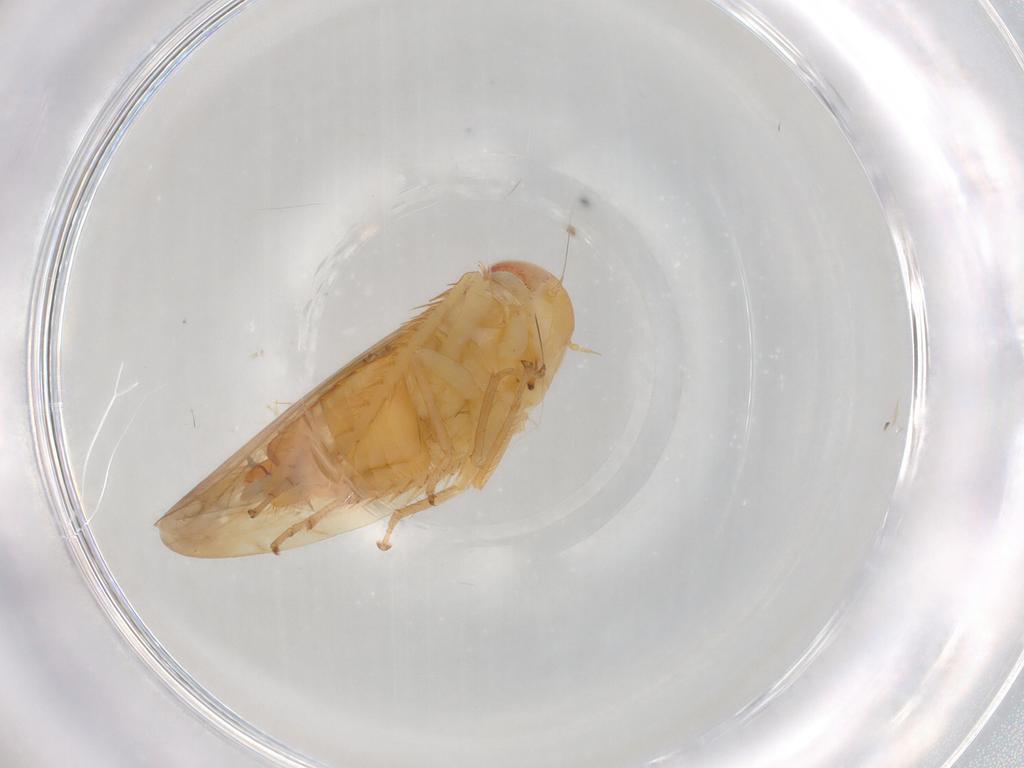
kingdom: Animalia
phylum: Arthropoda
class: Insecta
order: Hemiptera
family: Cicadellidae
